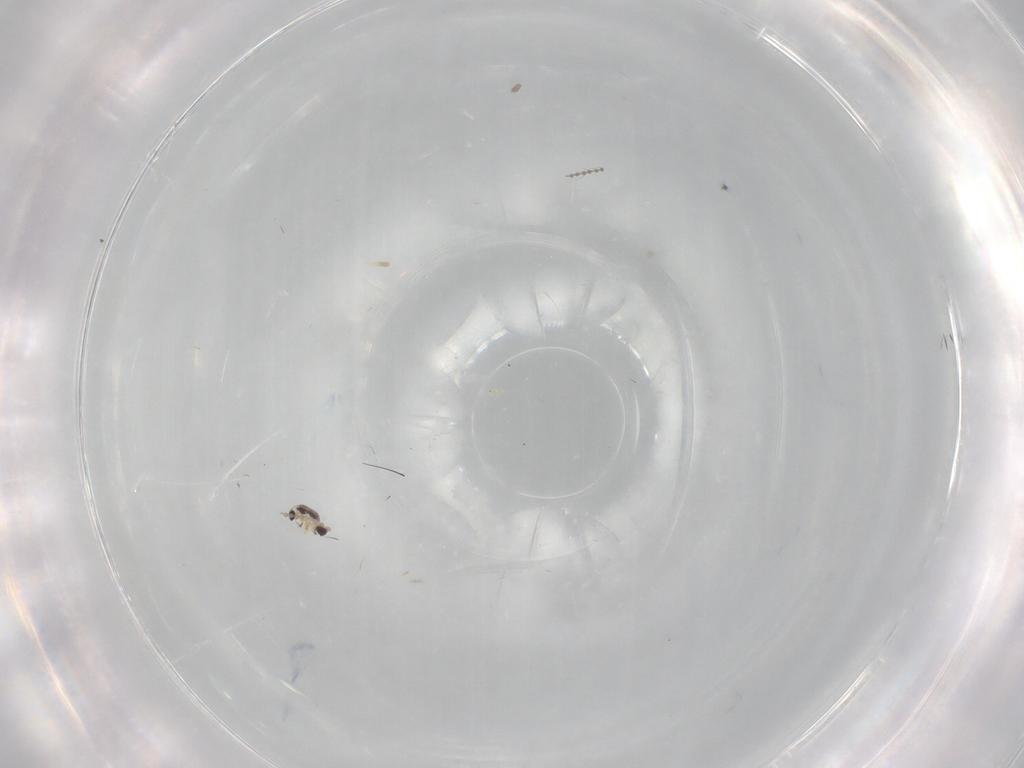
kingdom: Animalia
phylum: Arthropoda
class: Insecta
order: Diptera
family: Cecidomyiidae
